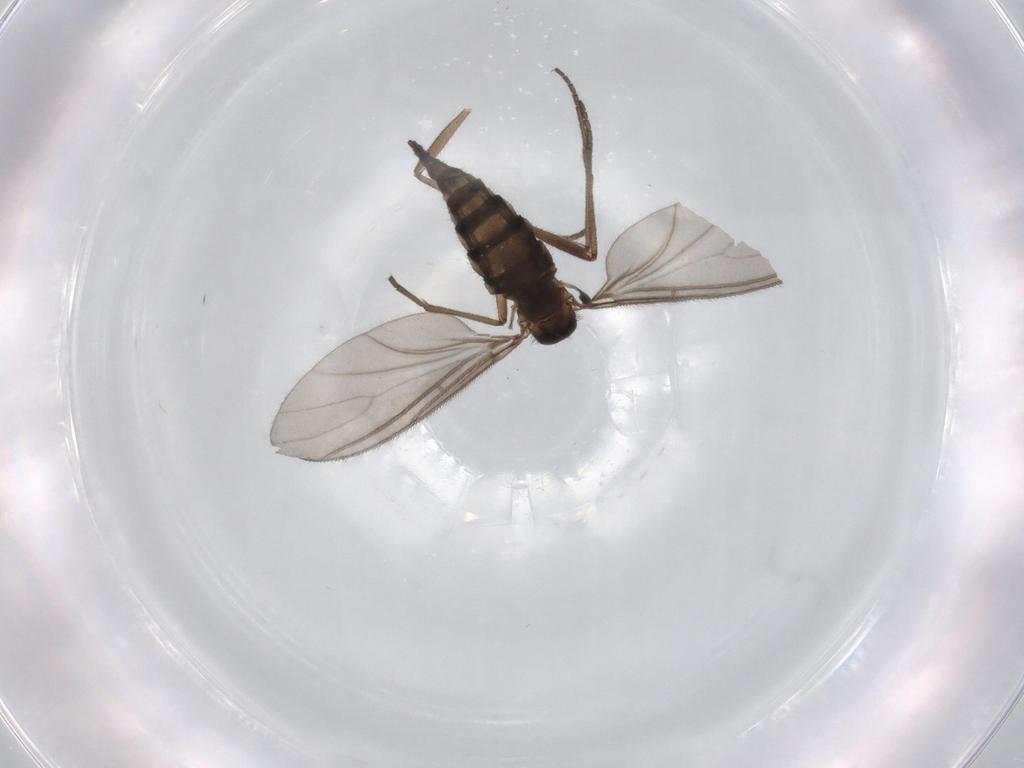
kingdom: Animalia
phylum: Arthropoda
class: Insecta
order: Diptera
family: Sciaridae
